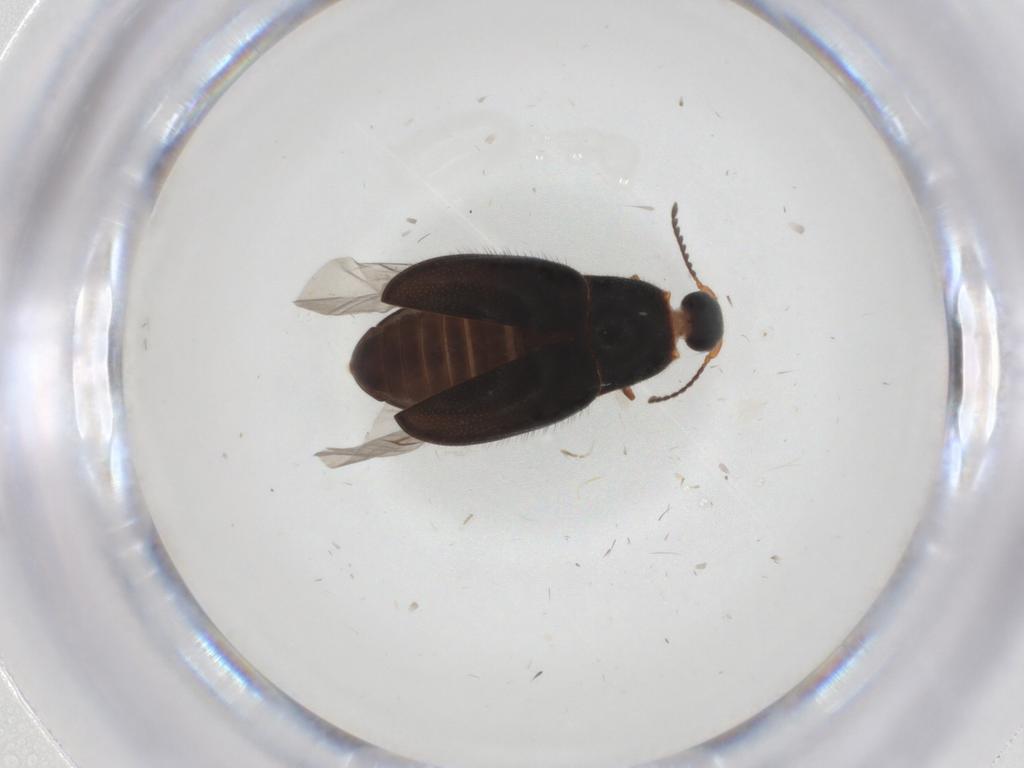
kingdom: Animalia
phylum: Arthropoda
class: Insecta
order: Coleoptera
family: Elateridae
